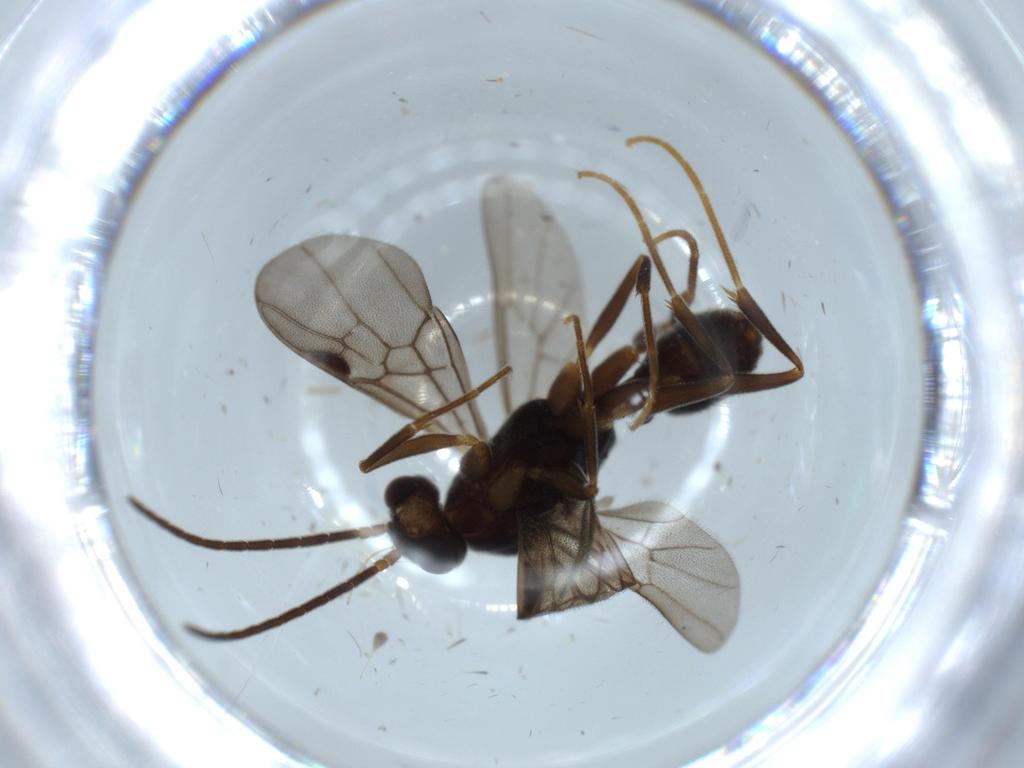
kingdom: Animalia
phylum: Arthropoda
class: Insecta
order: Hymenoptera
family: Formicidae
